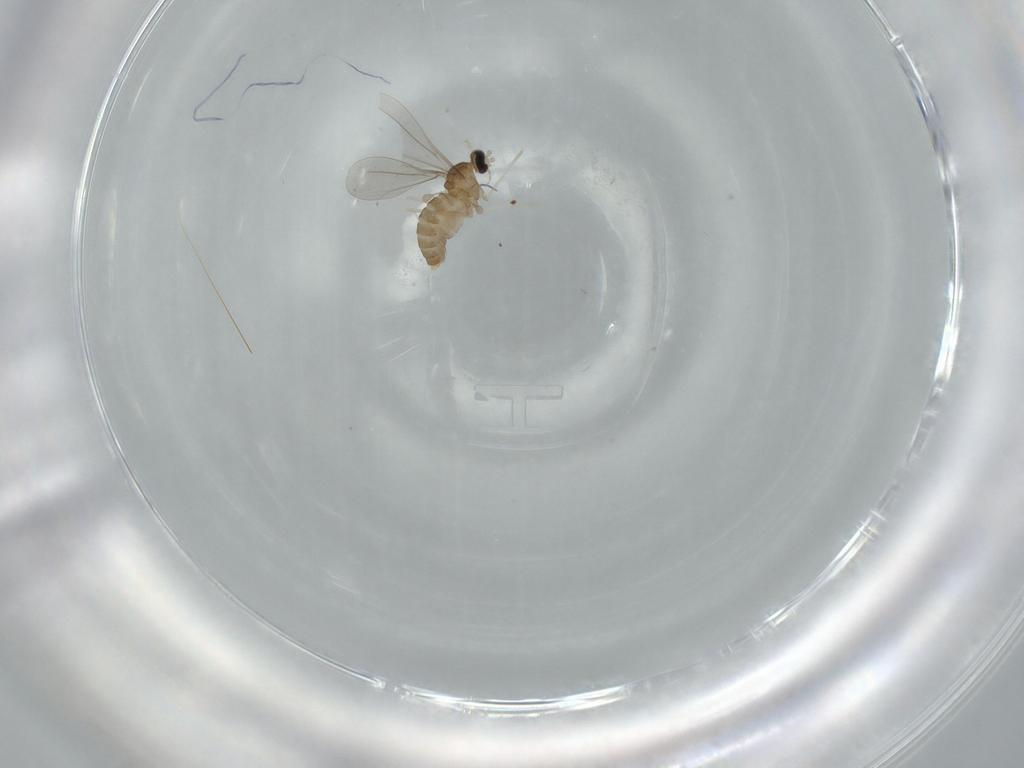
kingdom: Animalia
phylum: Arthropoda
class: Insecta
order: Diptera
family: Cecidomyiidae
